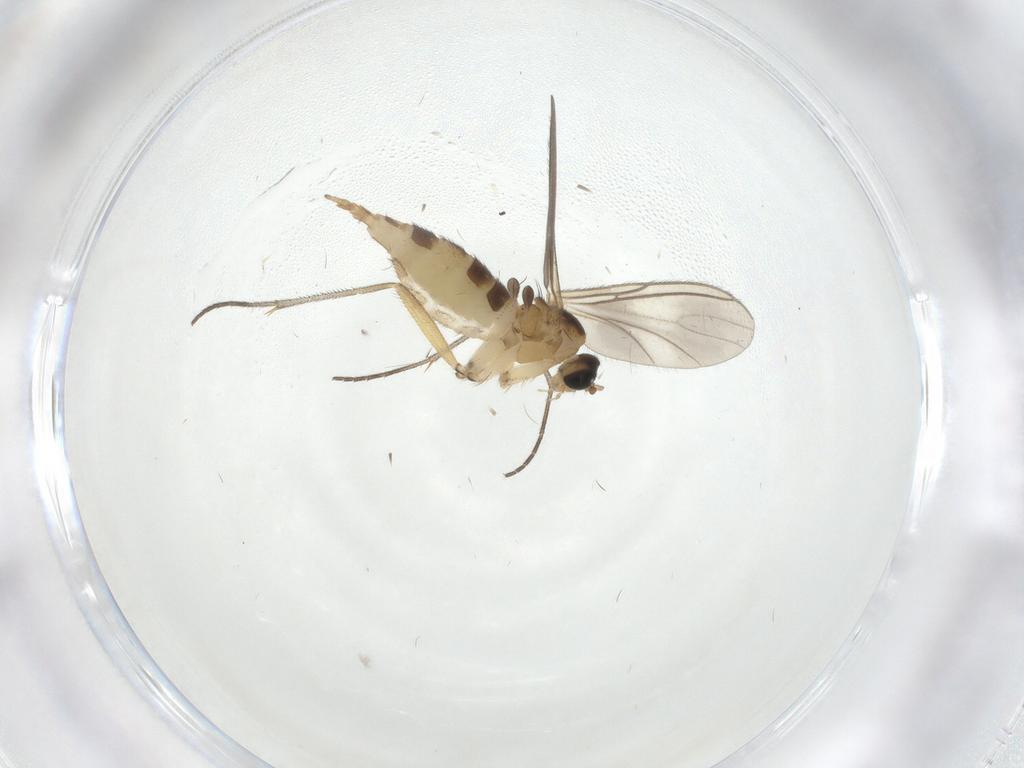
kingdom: Animalia
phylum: Arthropoda
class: Insecta
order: Diptera
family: Sciaridae
